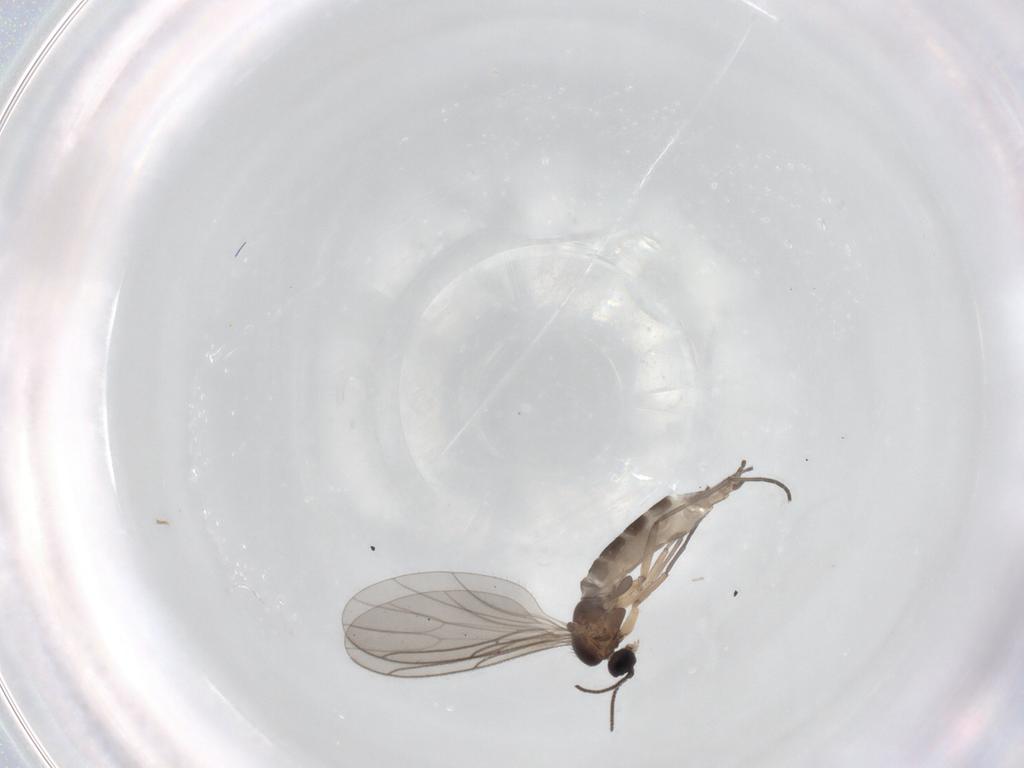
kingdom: Animalia
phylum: Arthropoda
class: Insecta
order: Diptera
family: Sciaridae
